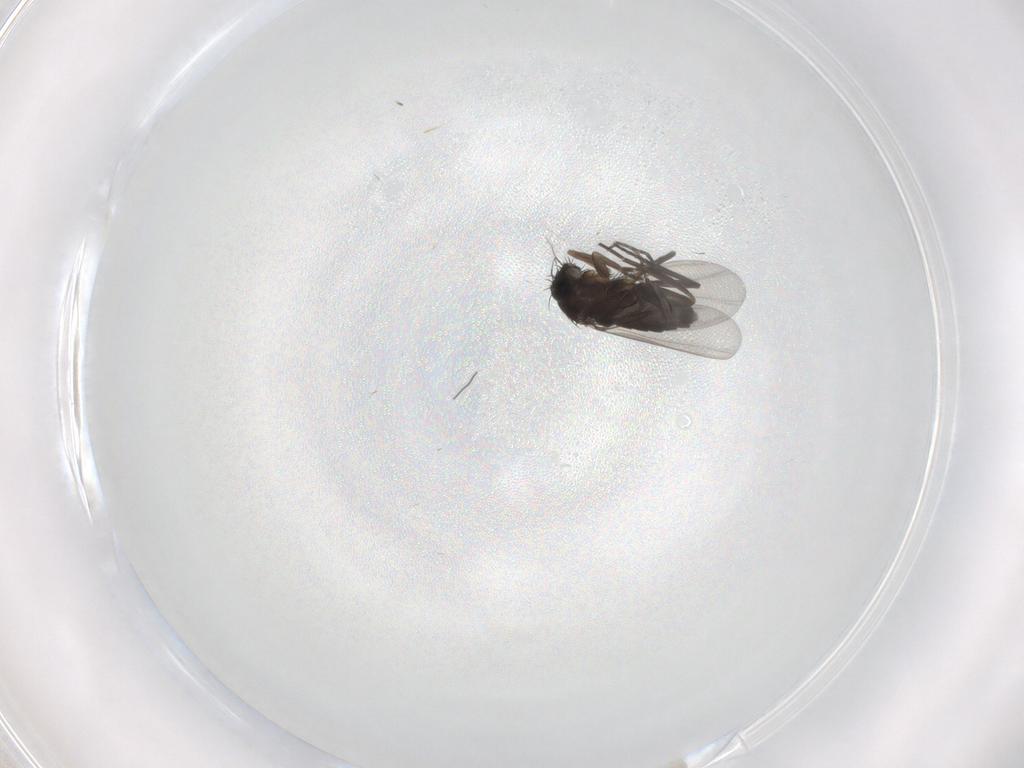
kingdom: Animalia
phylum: Arthropoda
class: Insecta
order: Diptera
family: Phoridae
